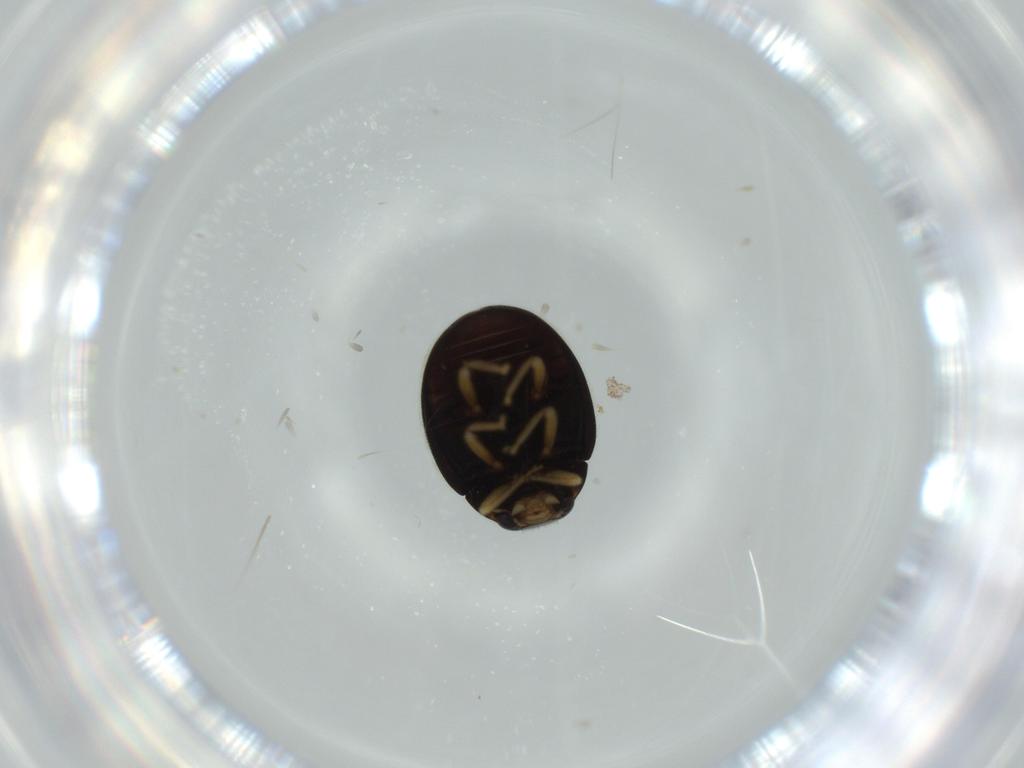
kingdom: Animalia
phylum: Arthropoda
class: Insecta
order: Coleoptera
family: Coccinellidae
